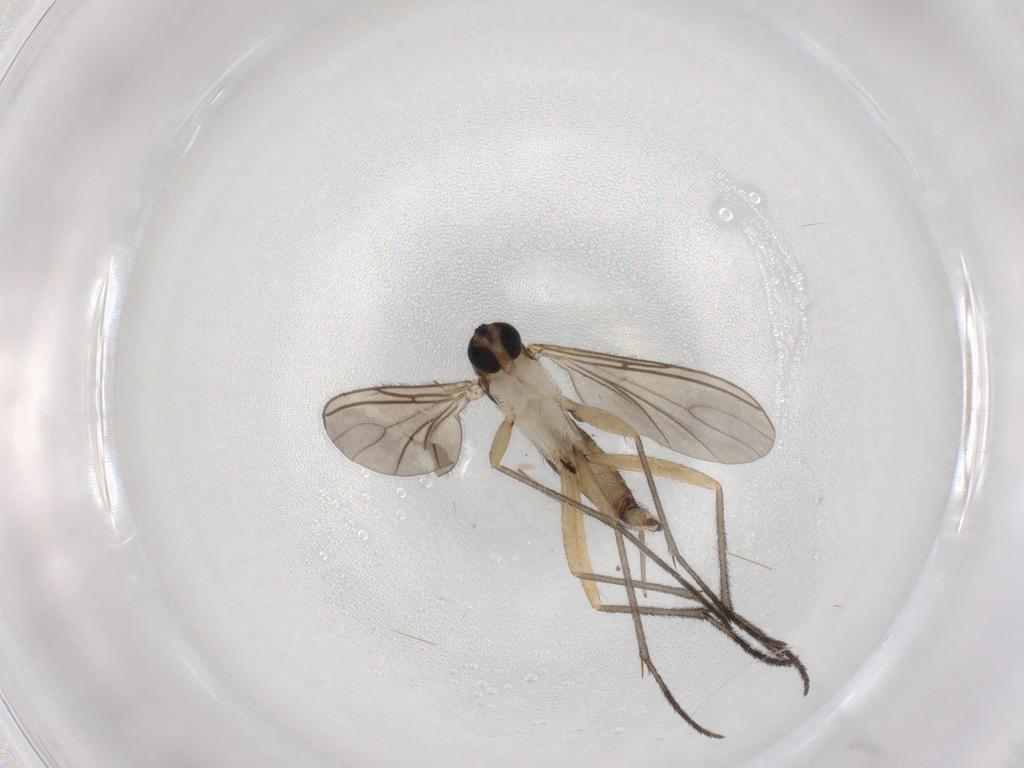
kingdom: Animalia
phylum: Arthropoda
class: Insecta
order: Diptera
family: Sciaridae
